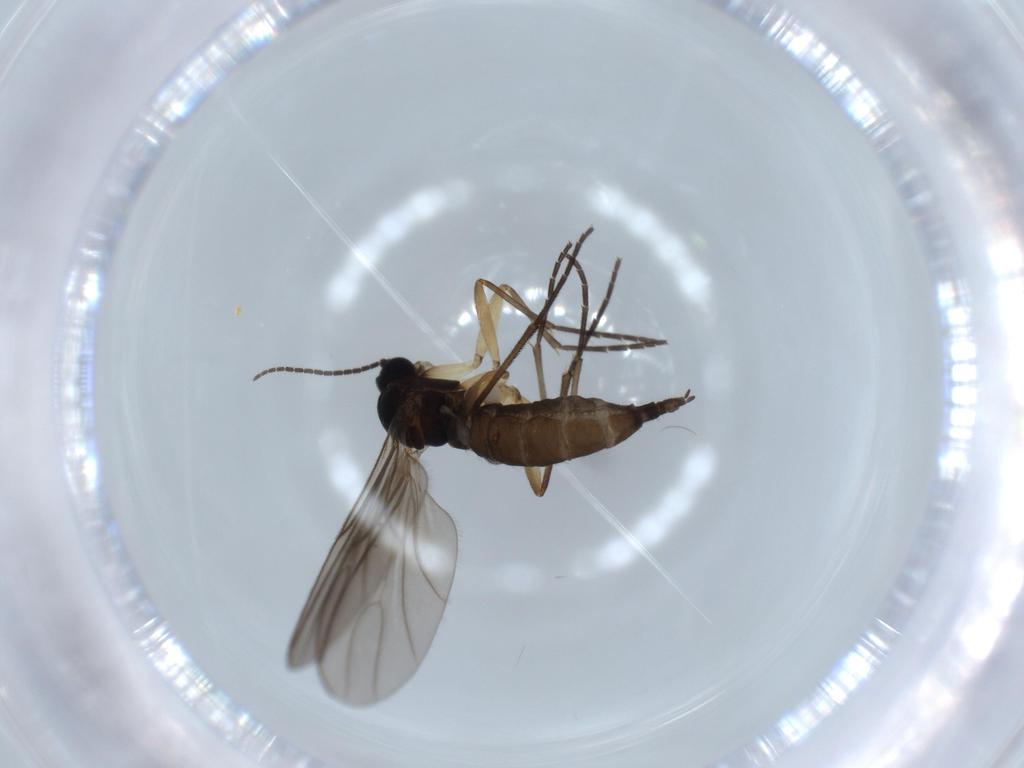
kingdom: Animalia
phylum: Arthropoda
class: Insecta
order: Diptera
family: Sciaridae
